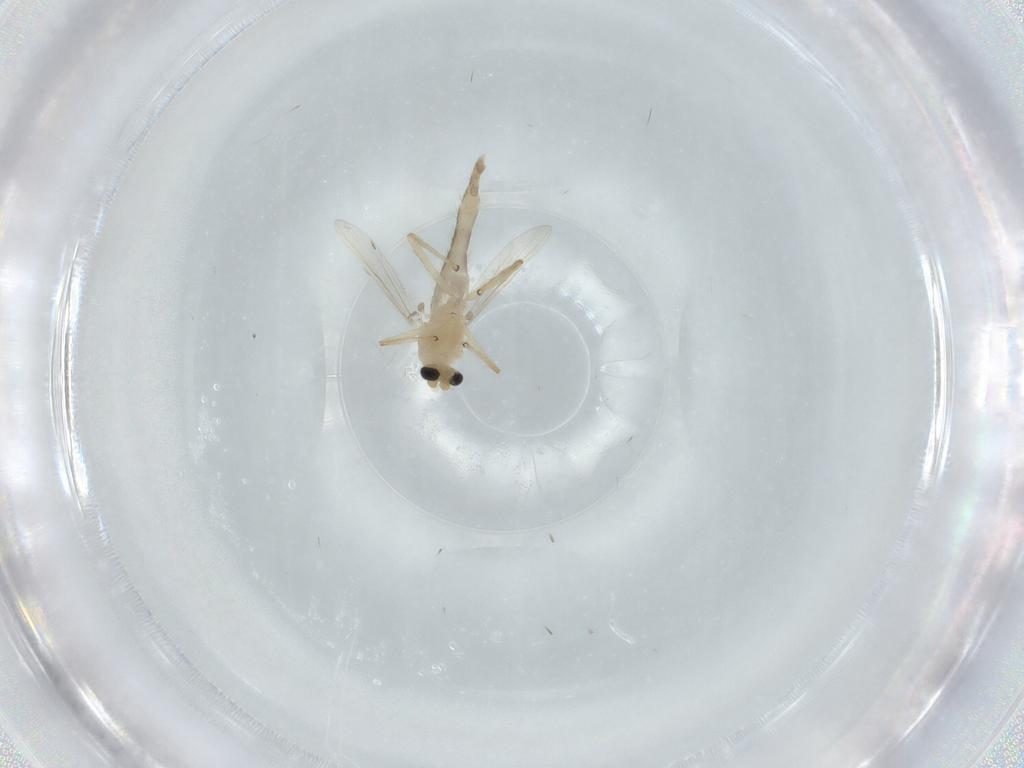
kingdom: Animalia
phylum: Arthropoda
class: Insecta
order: Diptera
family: Chironomidae
